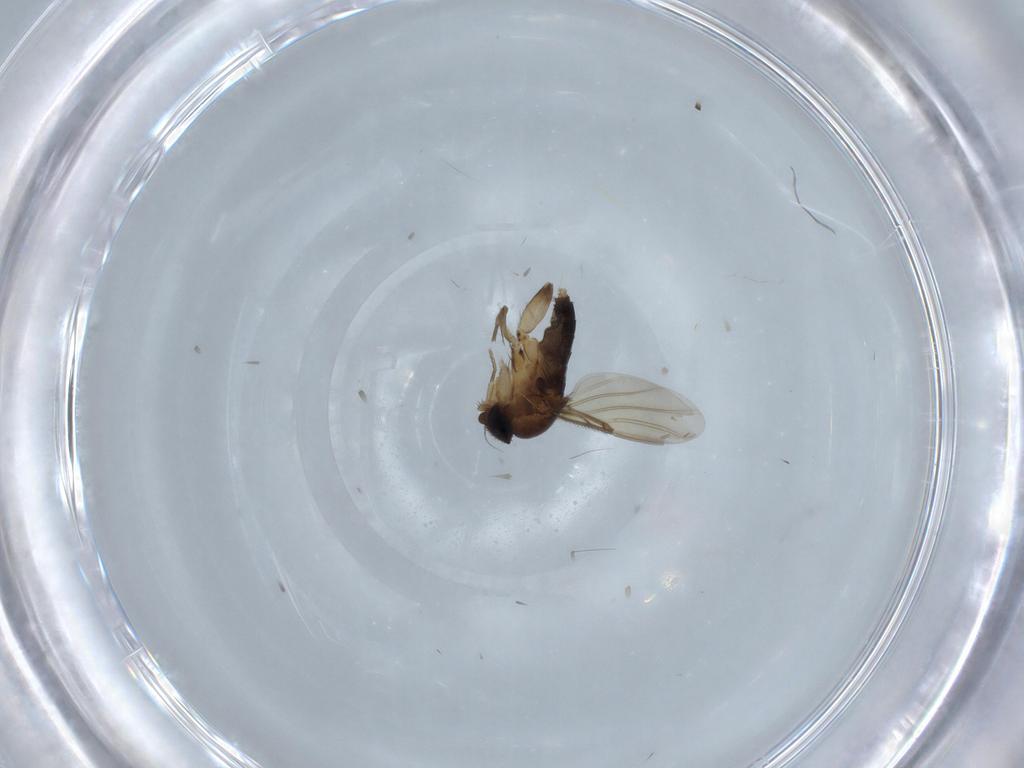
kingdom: Animalia
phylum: Arthropoda
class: Insecta
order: Diptera
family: Phoridae
